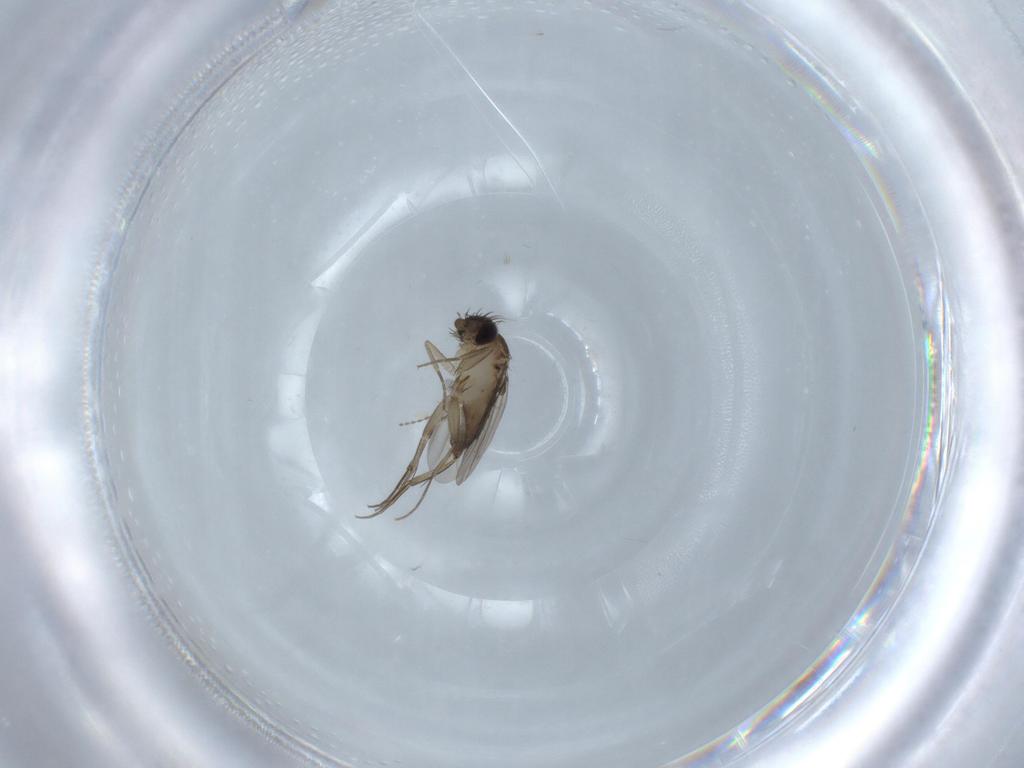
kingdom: Animalia
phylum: Arthropoda
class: Insecta
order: Diptera
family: Phoridae
